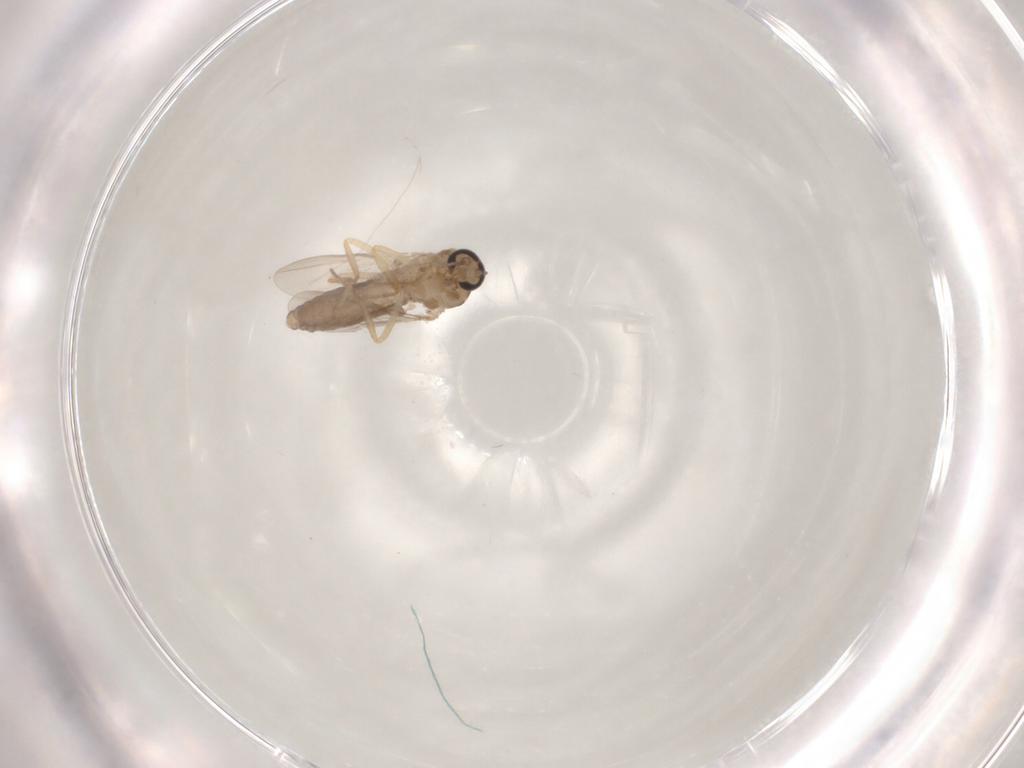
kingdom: Animalia
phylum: Arthropoda
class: Insecta
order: Diptera
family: Ceratopogonidae
